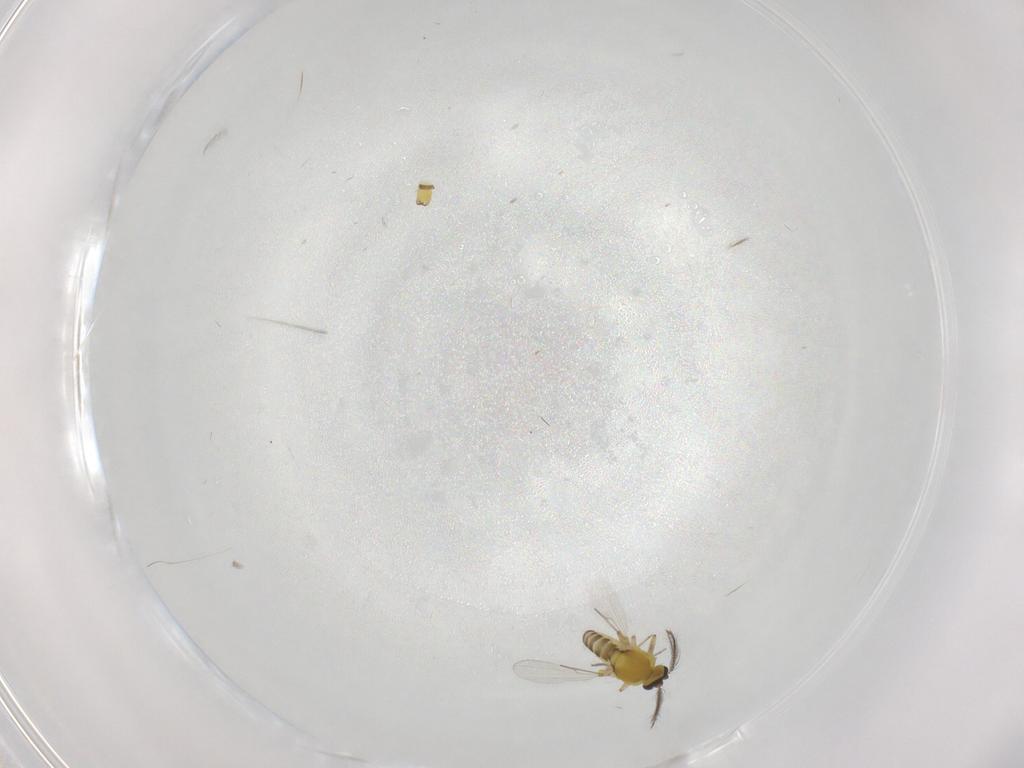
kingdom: Animalia
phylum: Arthropoda
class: Insecta
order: Diptera
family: Ceratopogonidae
